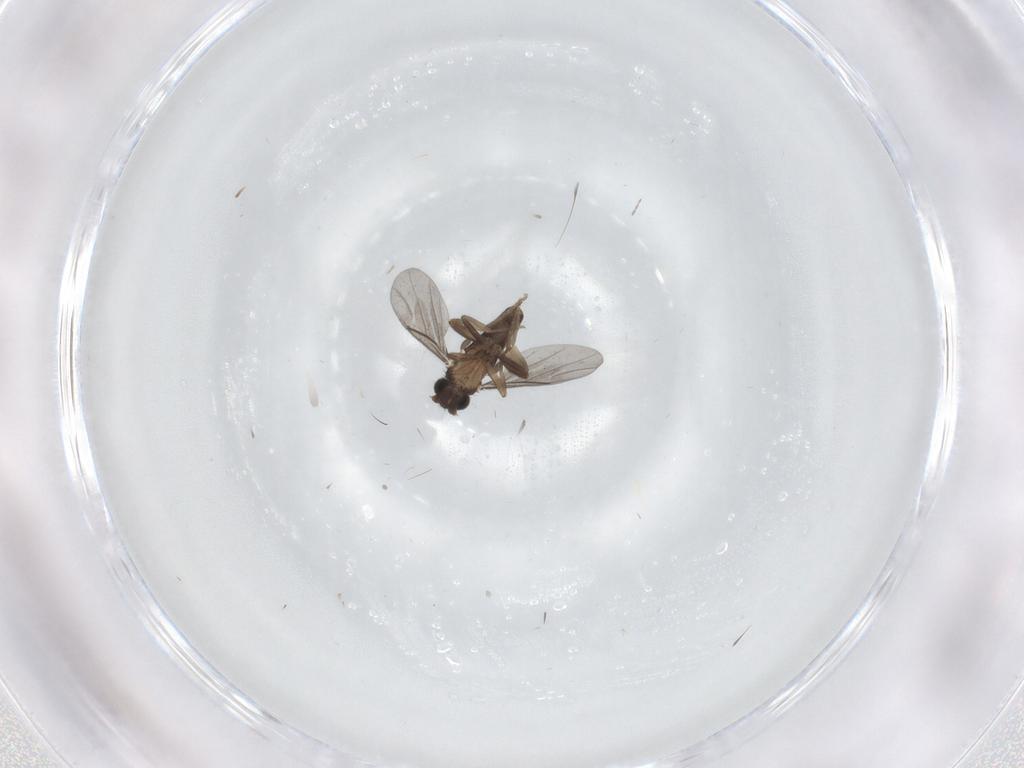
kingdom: Animalia
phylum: Arthropoda
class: Insecta
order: Diptera
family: Cecidomyiidae
